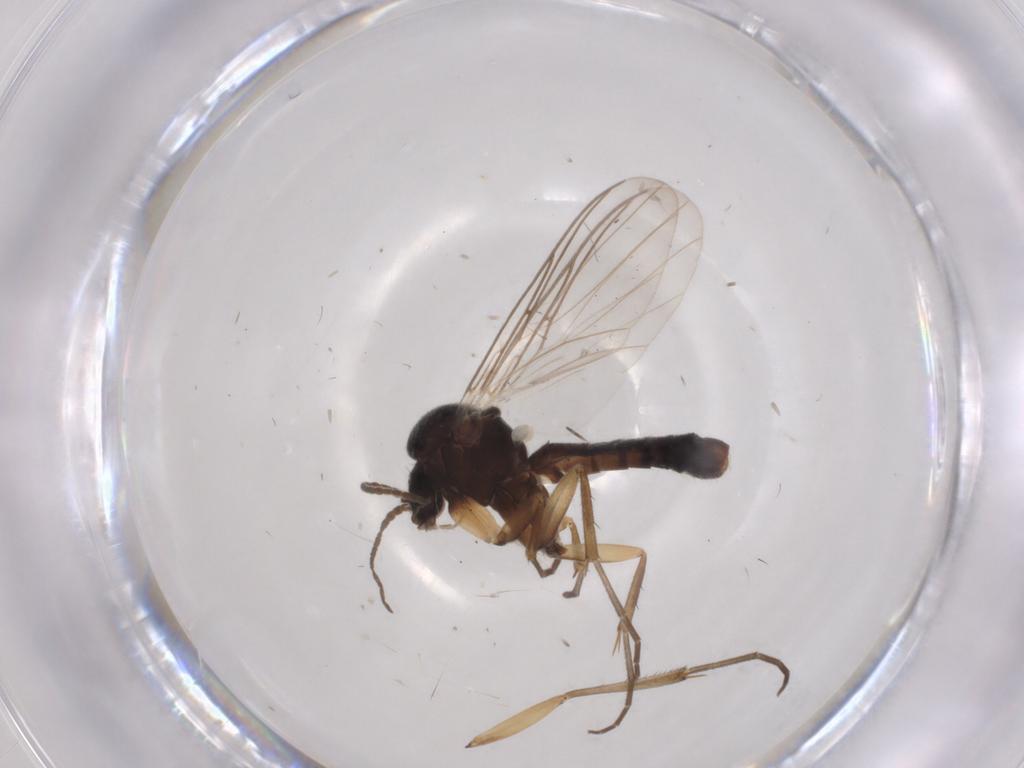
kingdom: Animalia
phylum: Arthropoda
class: Insecta
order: Diptera
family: Mycetophilidae
